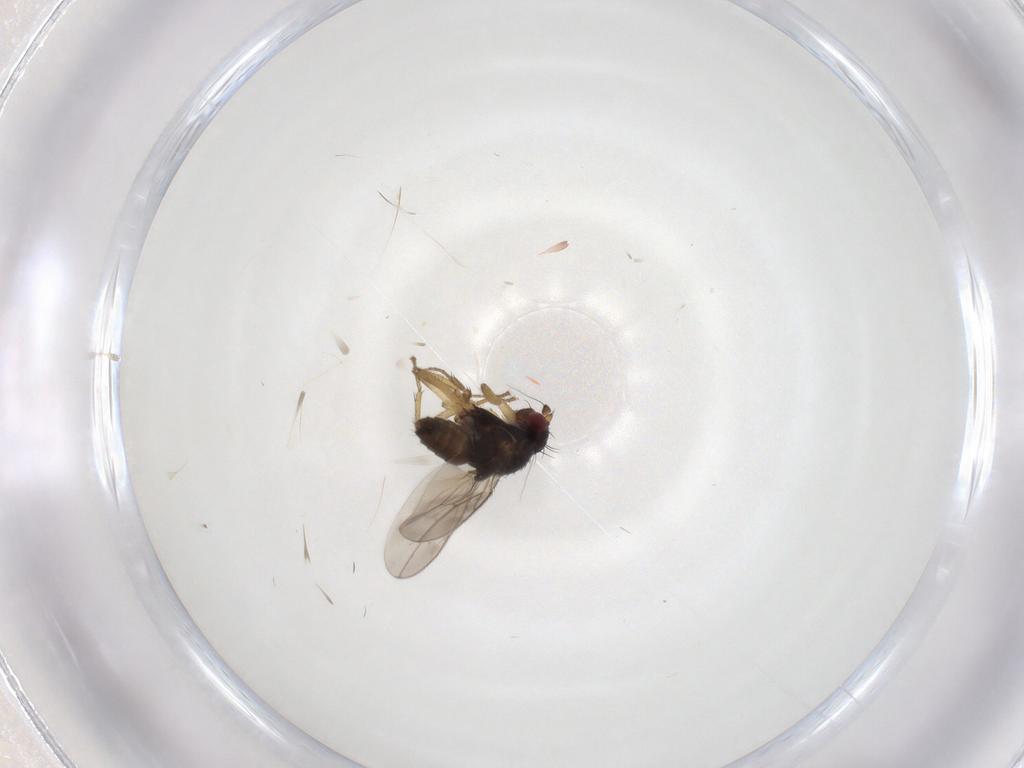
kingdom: Animalia
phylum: Arthropoda
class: Insecta
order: Diptera
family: Sphaeroceridae
